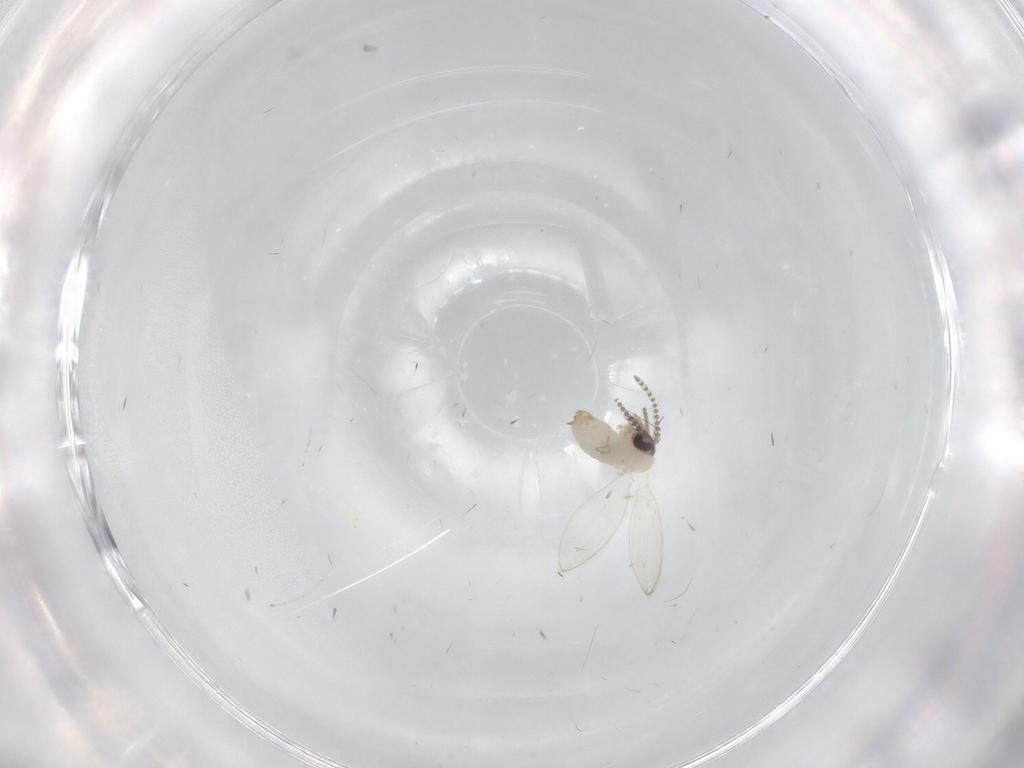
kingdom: Animalia
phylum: Arthropoda
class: Insecta
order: Diptera
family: Psychodidae
